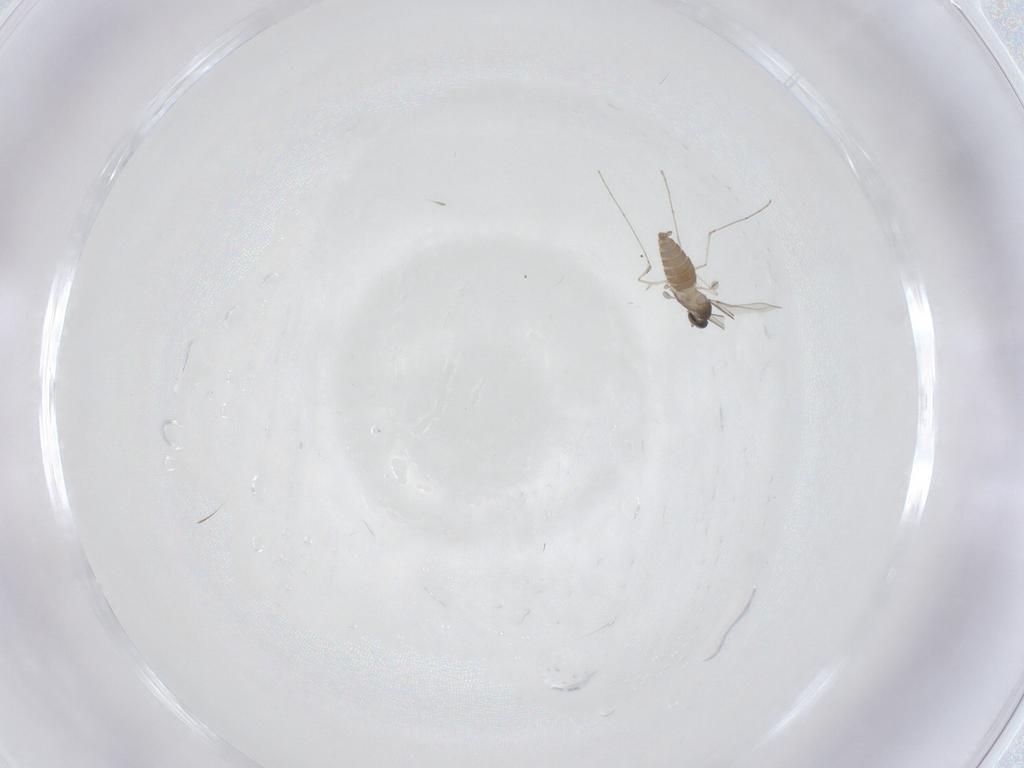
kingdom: Animalia
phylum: Arthropoda
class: Insecta
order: Diptera
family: Cecidomyiidae
